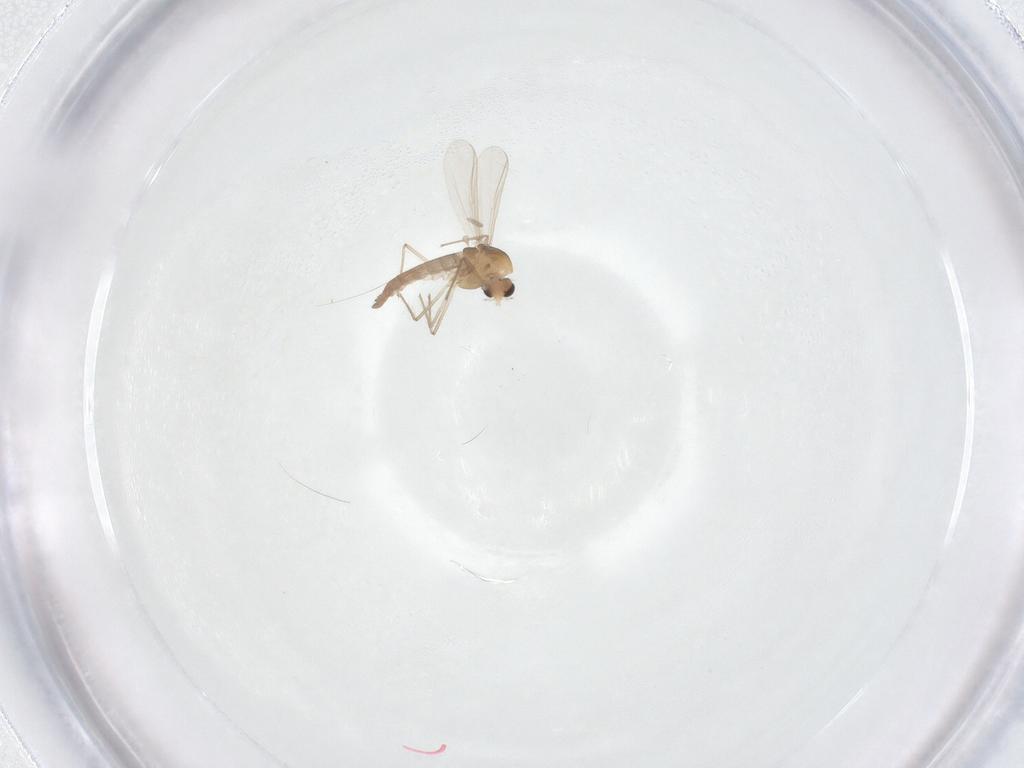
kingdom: Animalia
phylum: Arthropoda
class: Insecta
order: Diptera
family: Chironomidae
